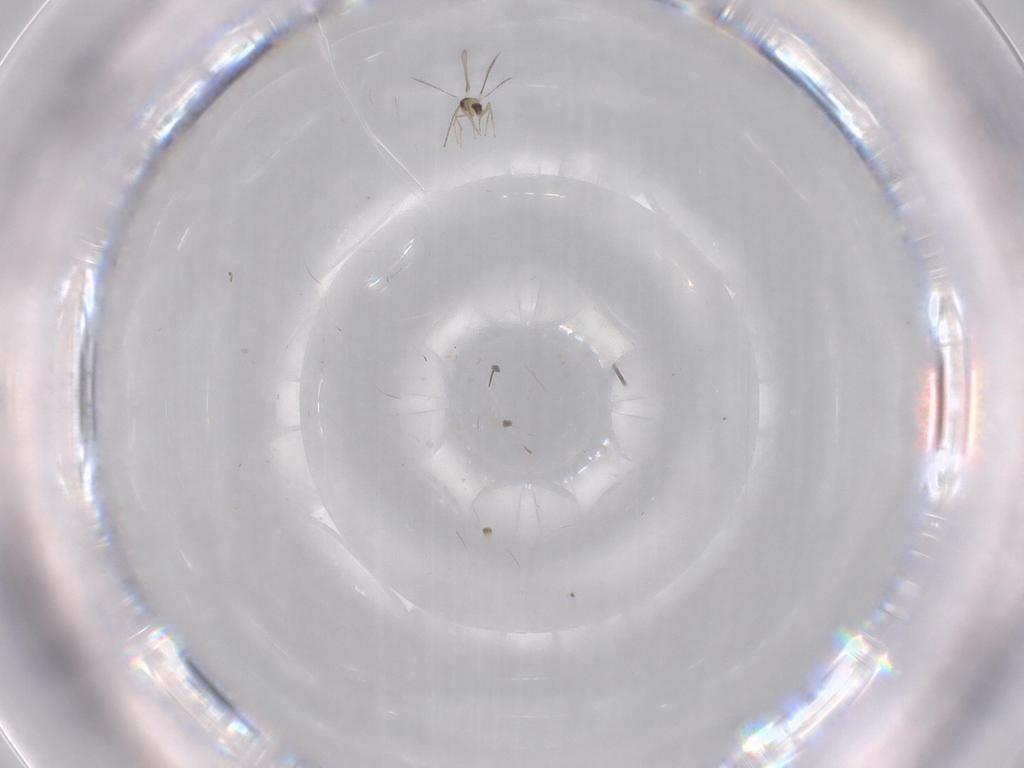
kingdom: Animalia
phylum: Arthropoda
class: Insecta
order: Hymenoptera
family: Mymaridae
